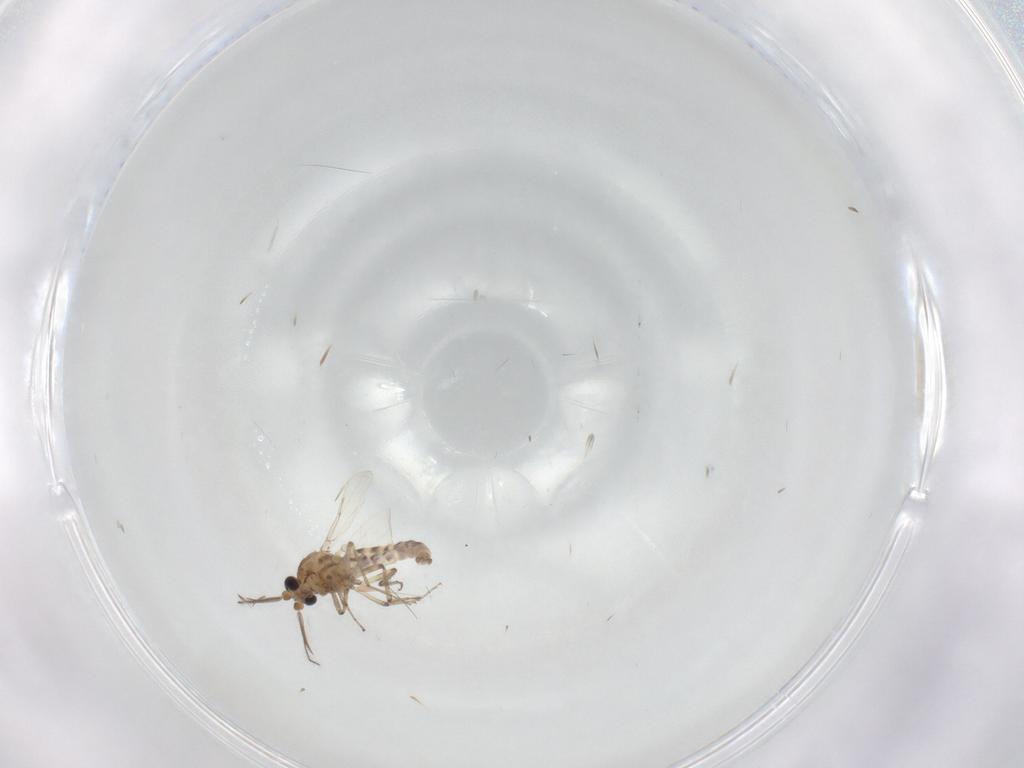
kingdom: Animalia
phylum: Arthropoda
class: Insecta
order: Diptera
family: Ceratopogonidae
